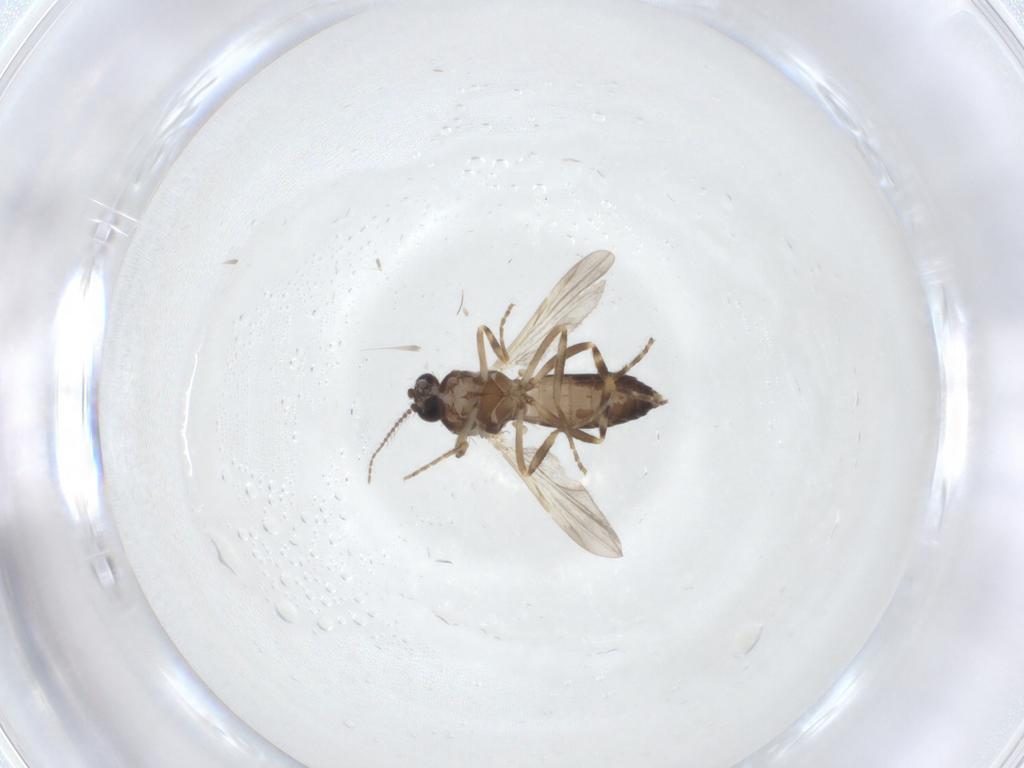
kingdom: Animalia
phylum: Arthropoda
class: Insecta
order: Diptera
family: Ceratopogonidae
